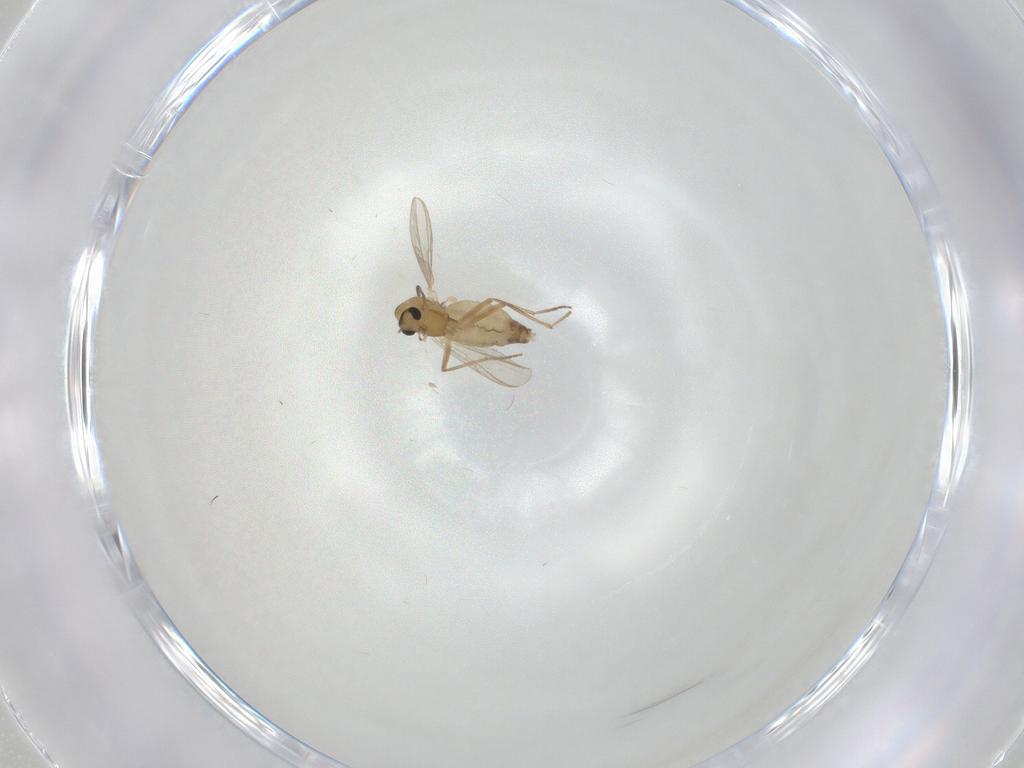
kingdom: Animalia
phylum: Arthropoda
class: Insecta
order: Diptera
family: Chironomidae
